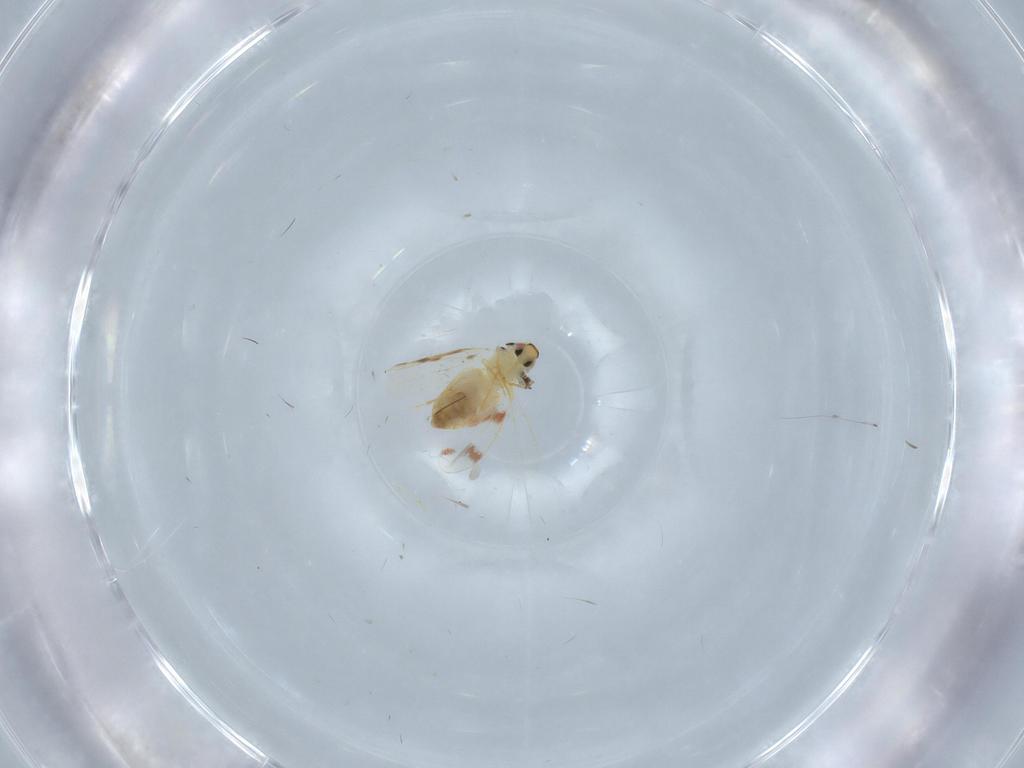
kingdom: Animalia
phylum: Arthropoda
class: Insecta
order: Hemiptera
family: Aleyrodidae
